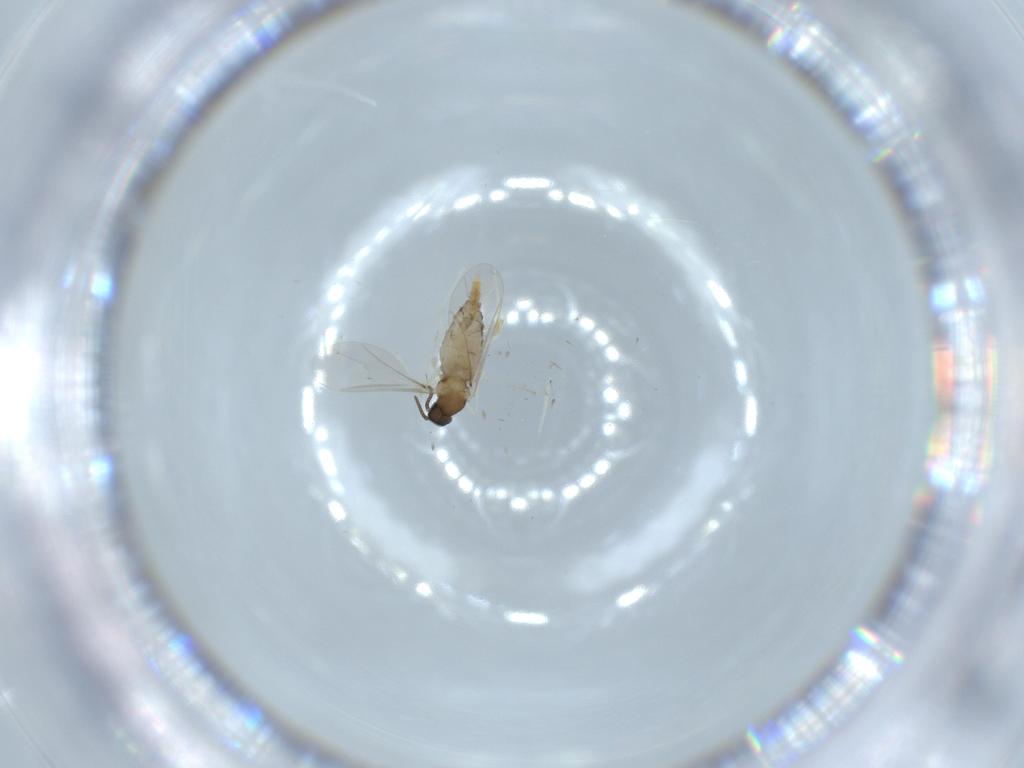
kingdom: Animalia
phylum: Arthropoda
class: Insecta
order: Diptera
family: Cecidomyiidae
